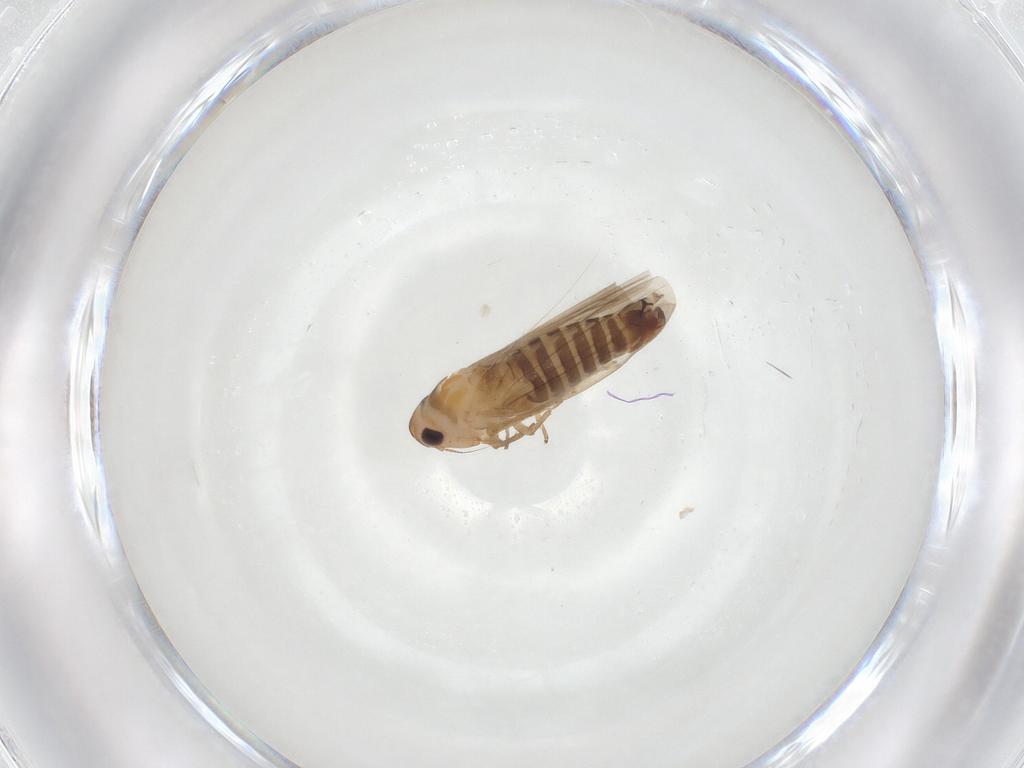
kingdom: Animalia
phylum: Arthropoda
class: Insecta
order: Hemiptera
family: Cicadellidae
